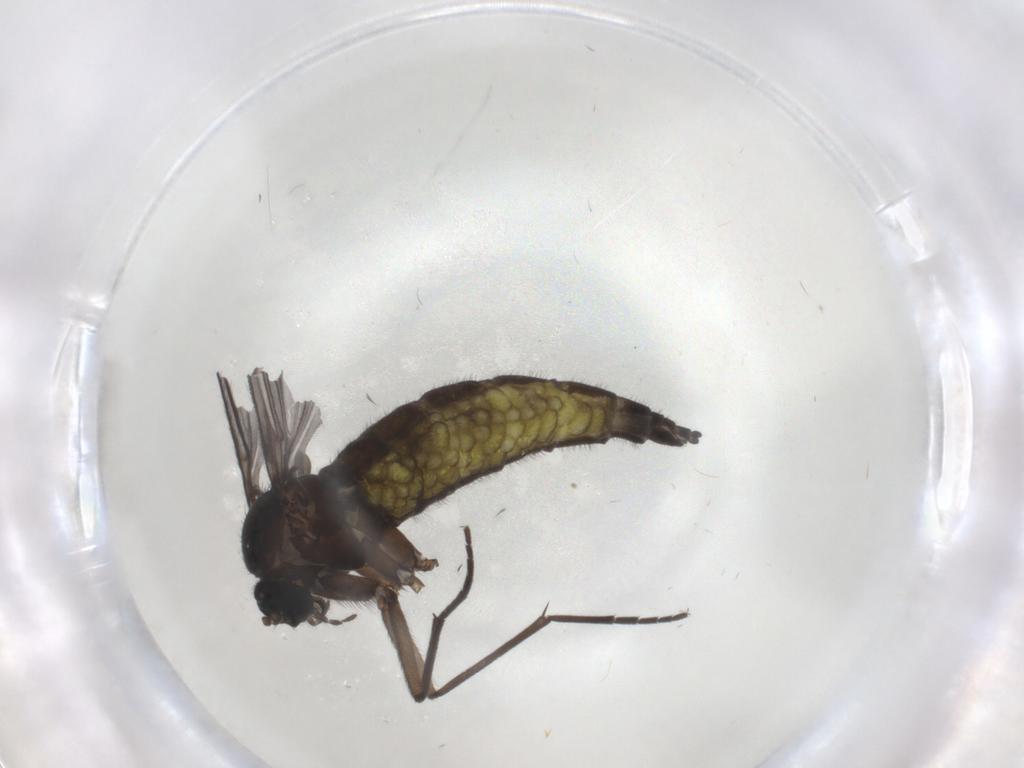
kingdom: Animalia
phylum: Arthropoda
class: Insecta
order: Diptera
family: Sciaridae
